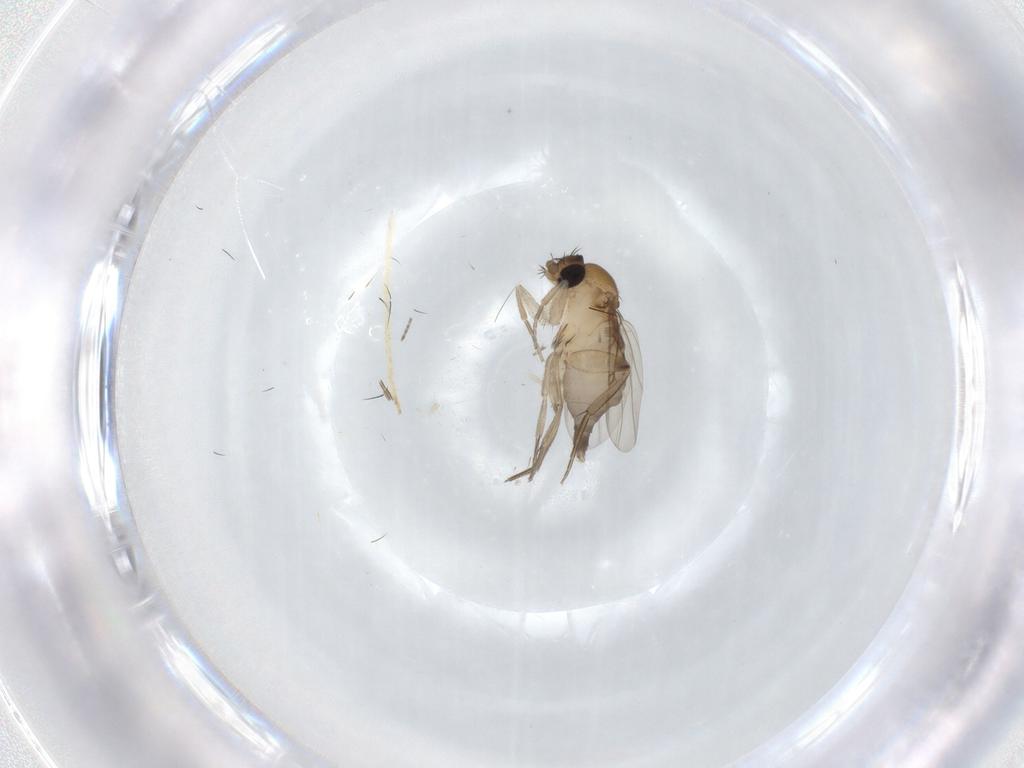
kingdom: Animalia
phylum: Arthropoda
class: Insecta
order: Diptera
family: Phoridae
